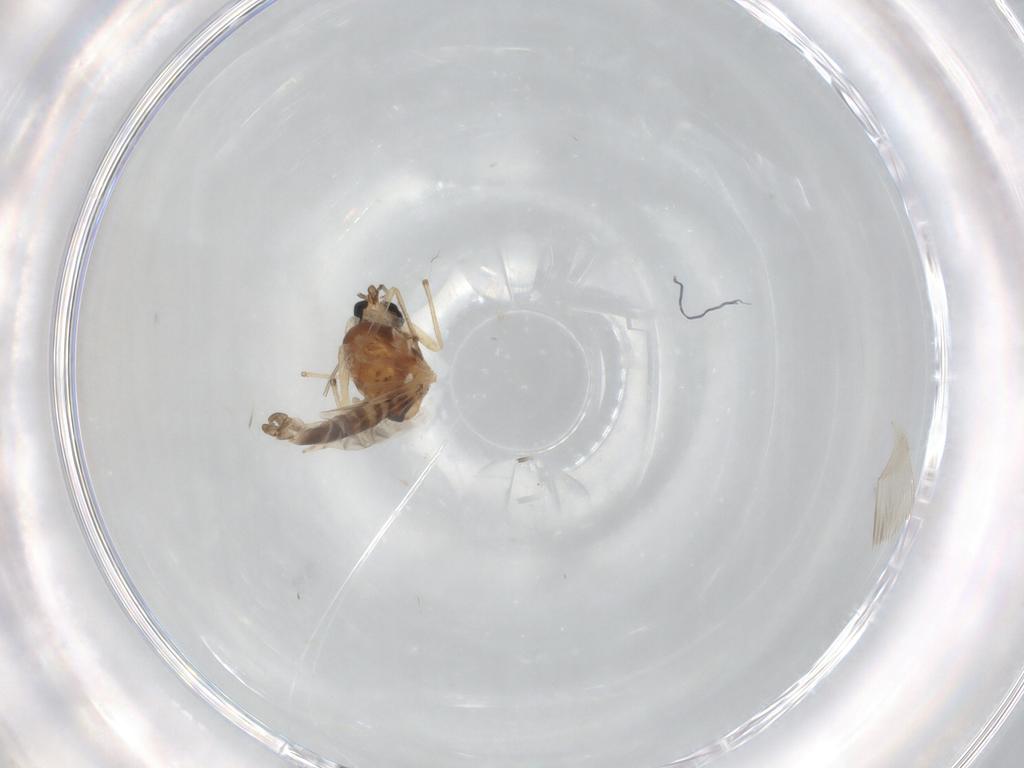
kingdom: Animalia
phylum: Arthropoda
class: Insecta
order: Diptera
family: Chironomidae
